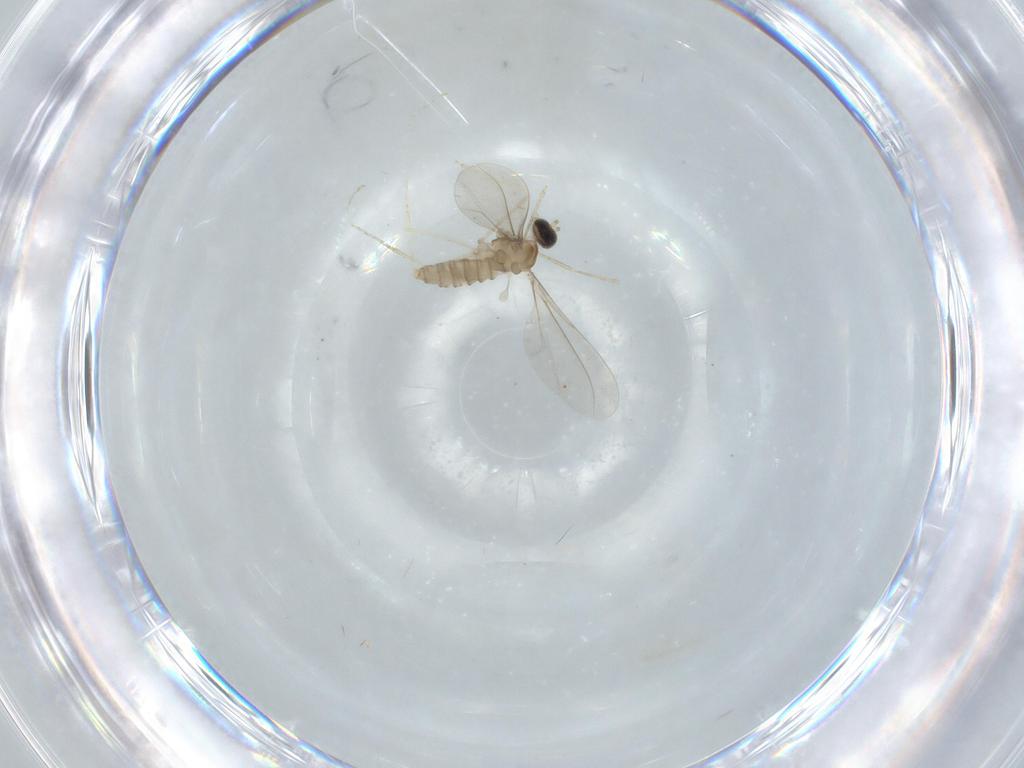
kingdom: Animalia
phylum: Arthropoda
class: Insecta
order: Diptera
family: Cecidomyiidae
